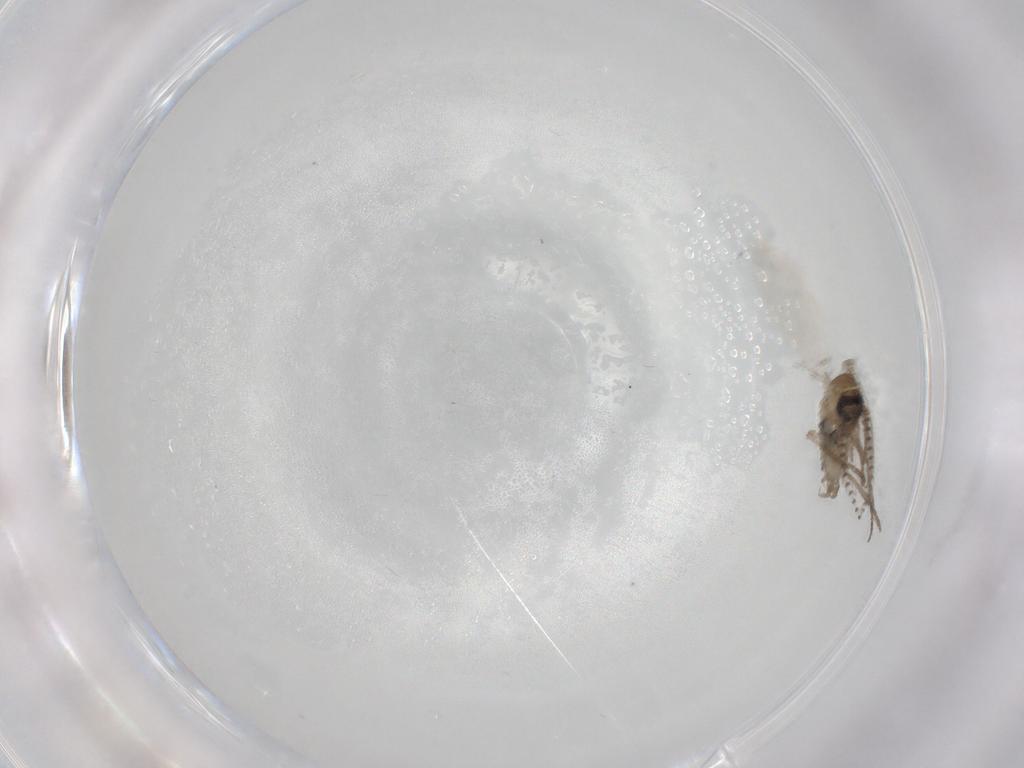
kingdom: Animalia
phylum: Arthropoda
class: Insecta
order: Diptera
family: Psychodidae
